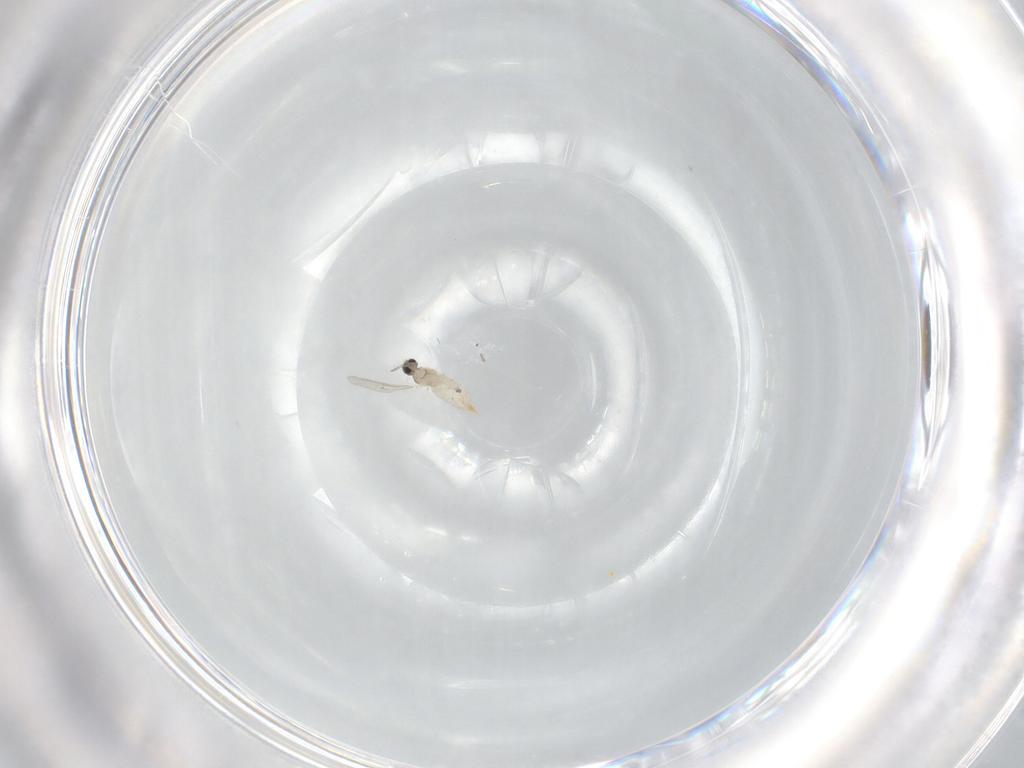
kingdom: Animalia
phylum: Arthropoda
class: Insecta
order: Diptera
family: Cecidomyiidae
